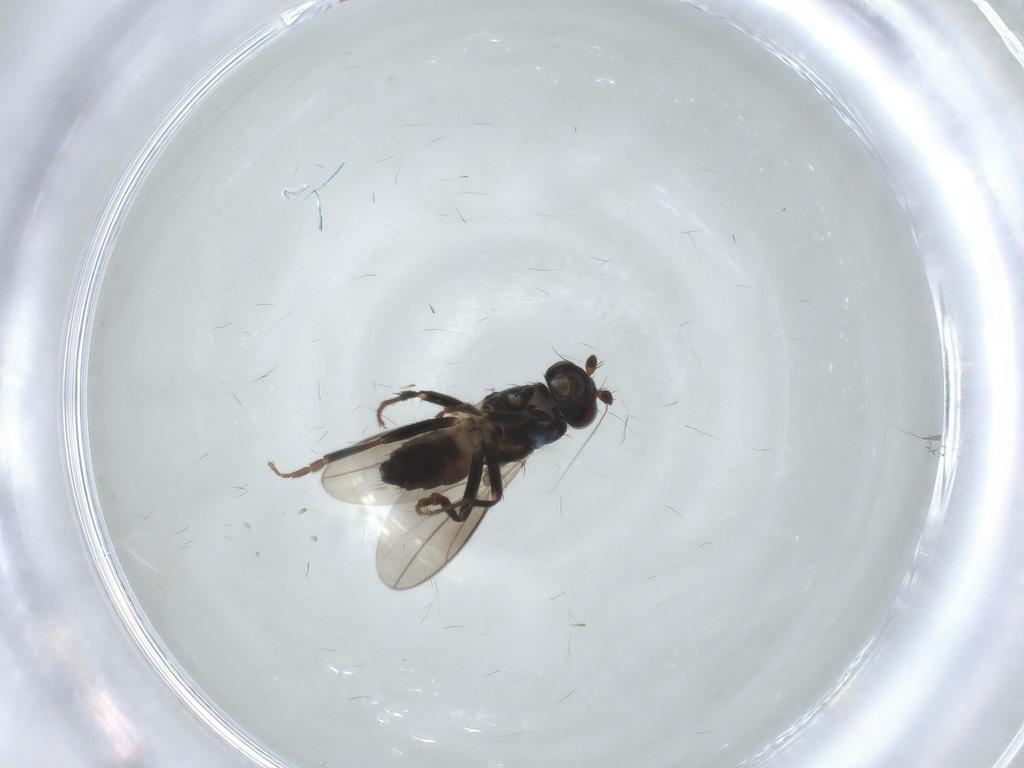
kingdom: Animalia
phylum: Arthropoda
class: Insecta
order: Diptera
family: Sphaeroceridae
